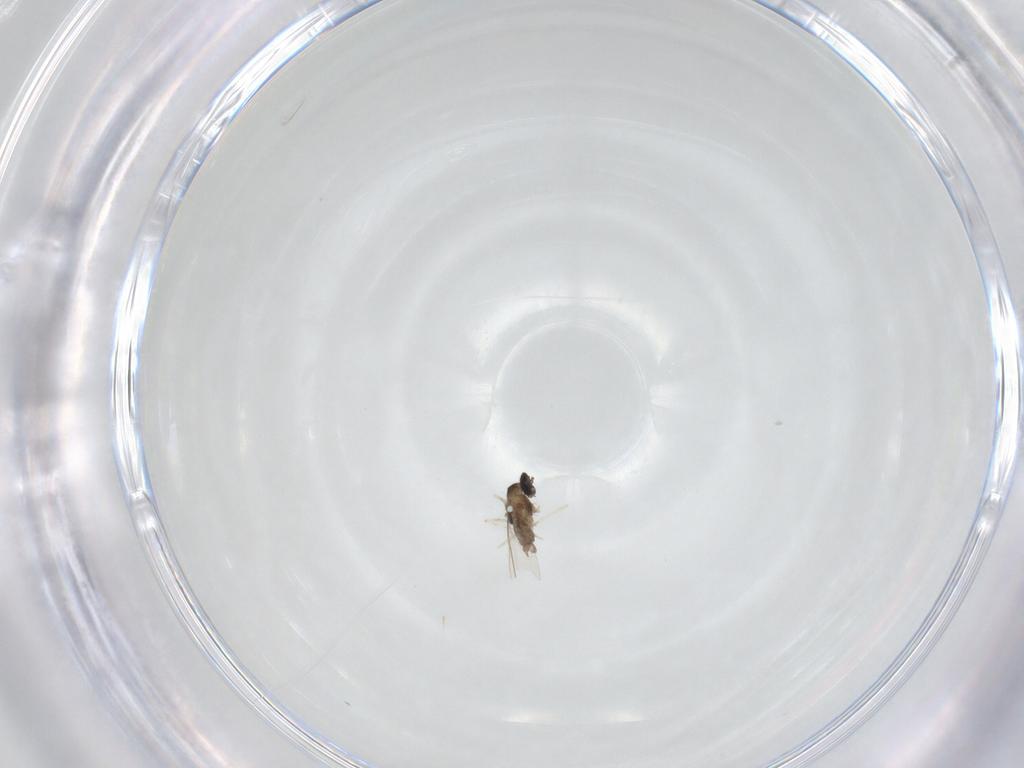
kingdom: Animalia
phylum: Arthropoda
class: Insecta
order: Diptera
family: Cecidomyiidae
